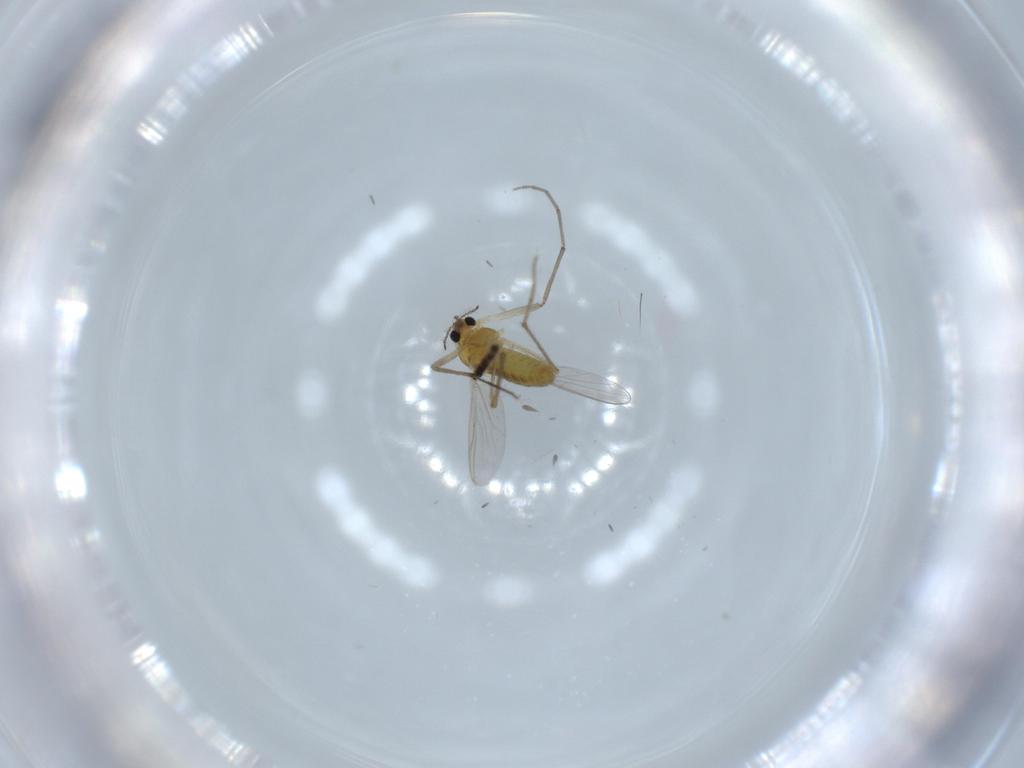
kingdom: Animalia
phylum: Arthropoda
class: Insecta
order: Diptera
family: Chironomidae
